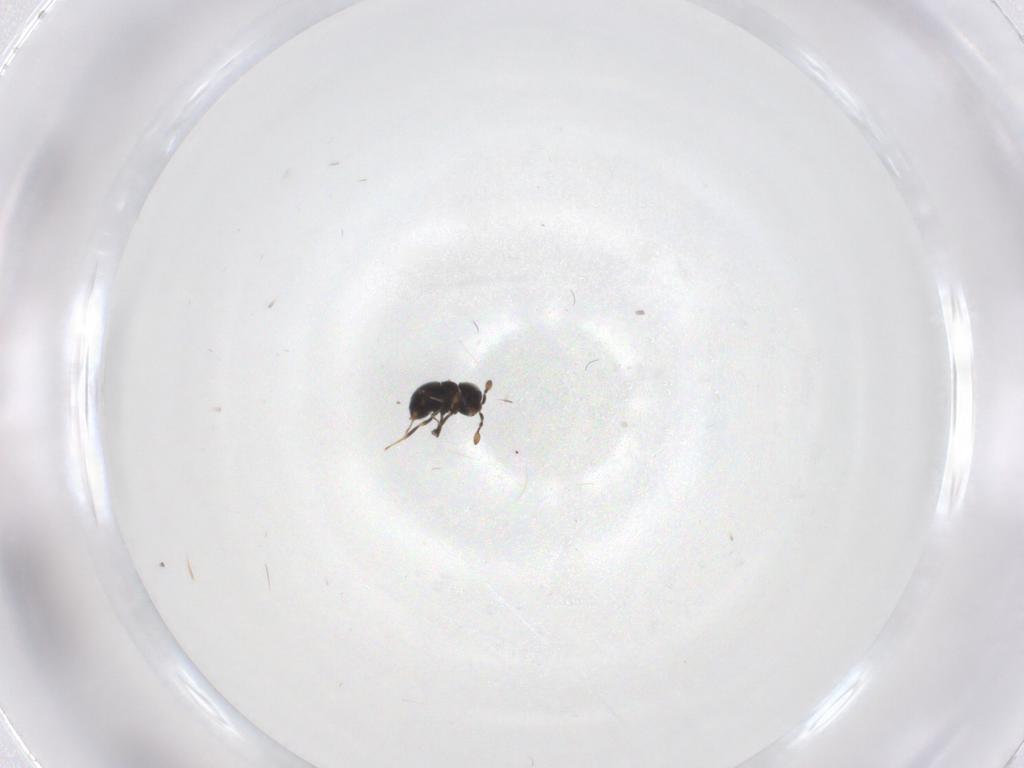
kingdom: Animalia
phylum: Arthropoda
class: Insecta
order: Hymenoptera
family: Scelionidae
